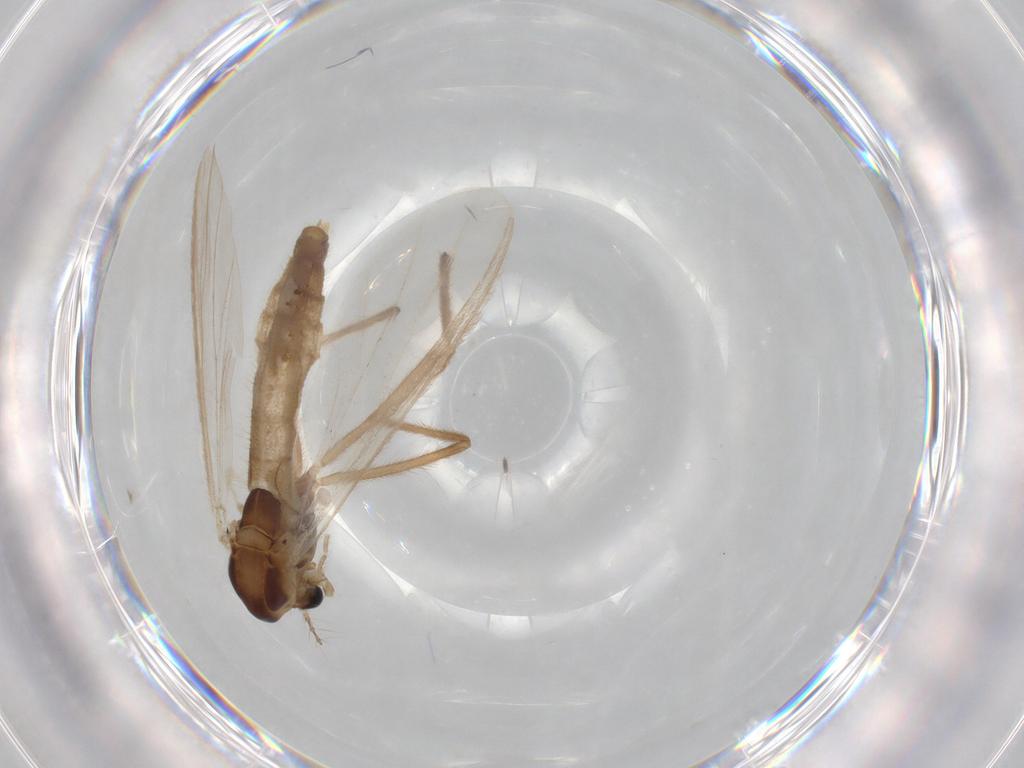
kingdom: Animalia
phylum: Arthropoda
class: Insecta
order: Diptera
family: Chironomidae
